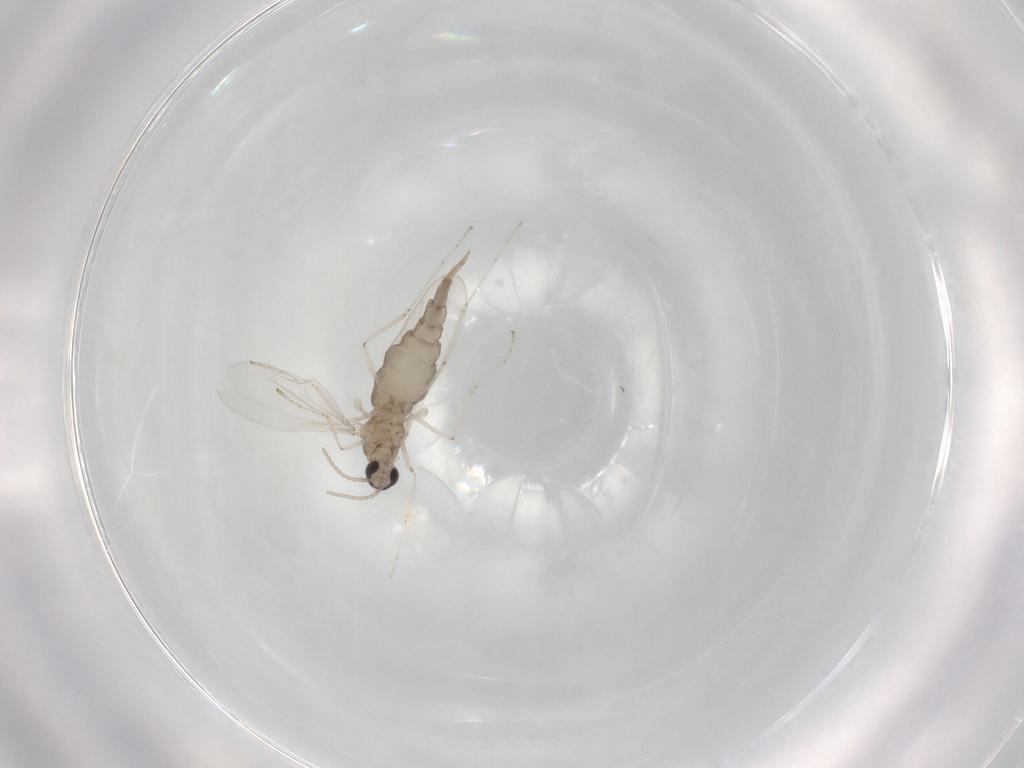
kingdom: Animalia
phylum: Arthropoda
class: Insecta
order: Diptera
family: Cecidomyiidae
